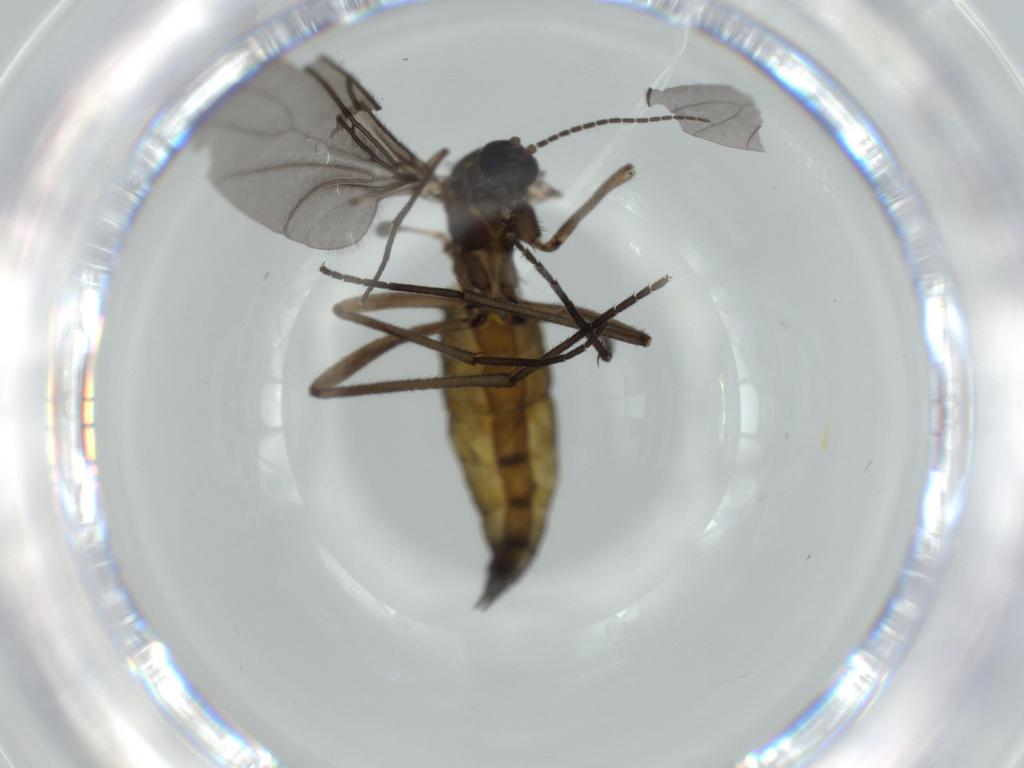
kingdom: Animalia
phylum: Arthropoda
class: Insecta
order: Diptera
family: Sciaridae
